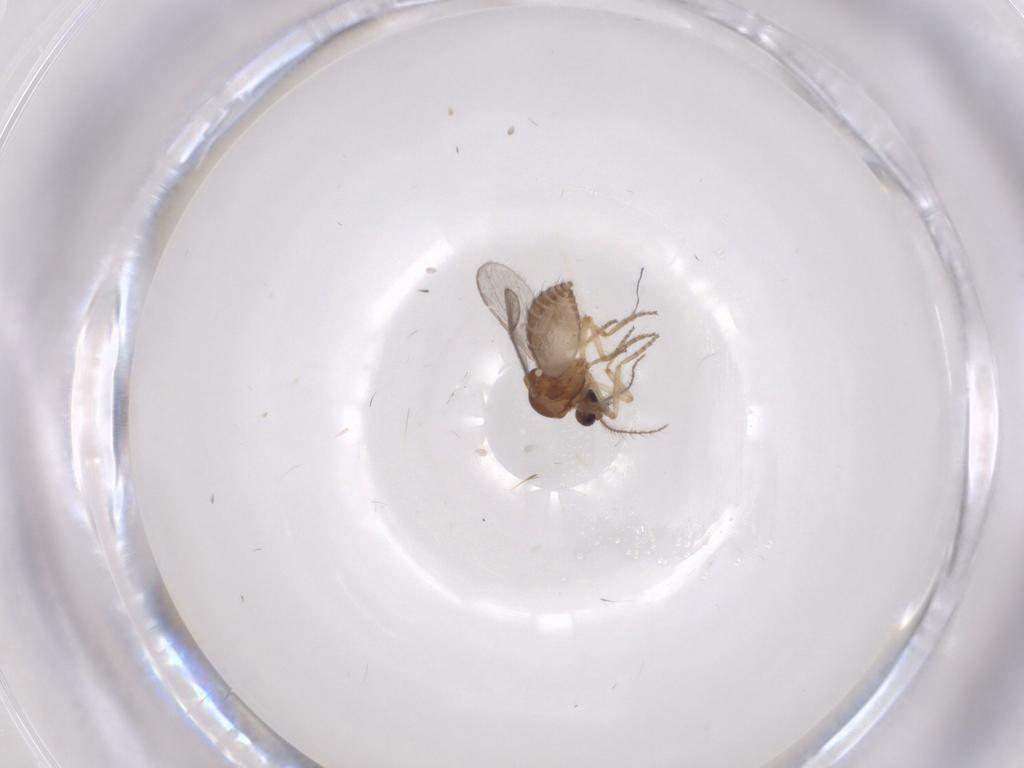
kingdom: Animalia
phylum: Arthropoda
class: Insecta
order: Diptera
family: Ceratopogonidae
